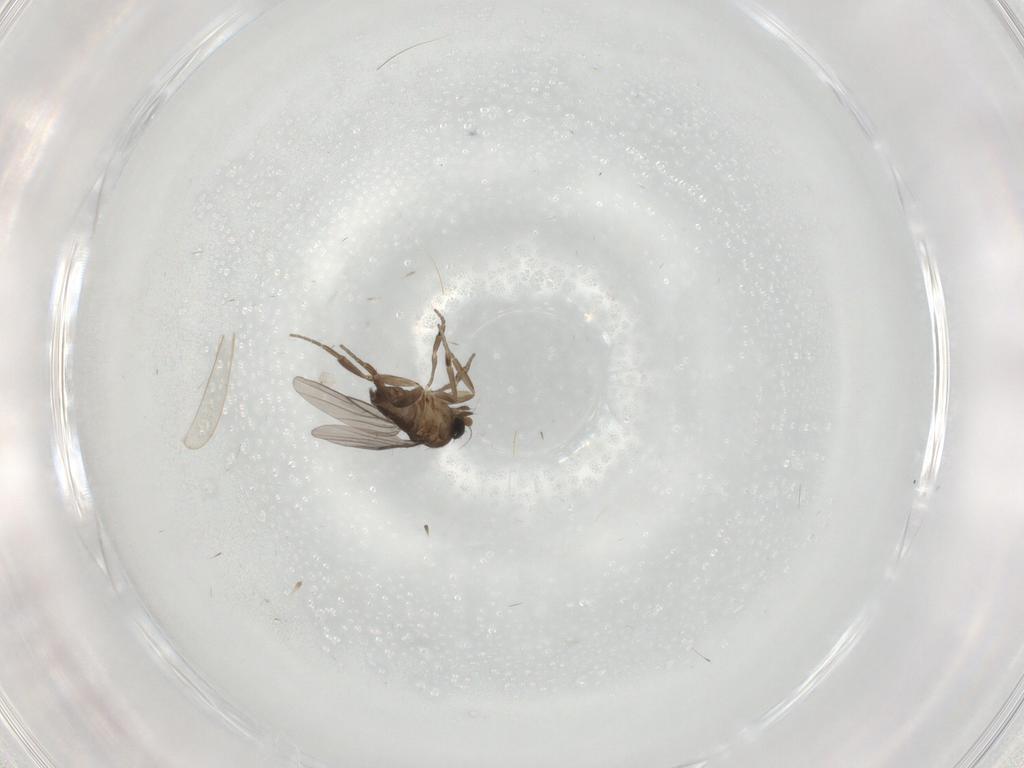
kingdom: Animalia
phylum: Arthropoda
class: Insecta
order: Diptera
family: Cecidomyiidae
